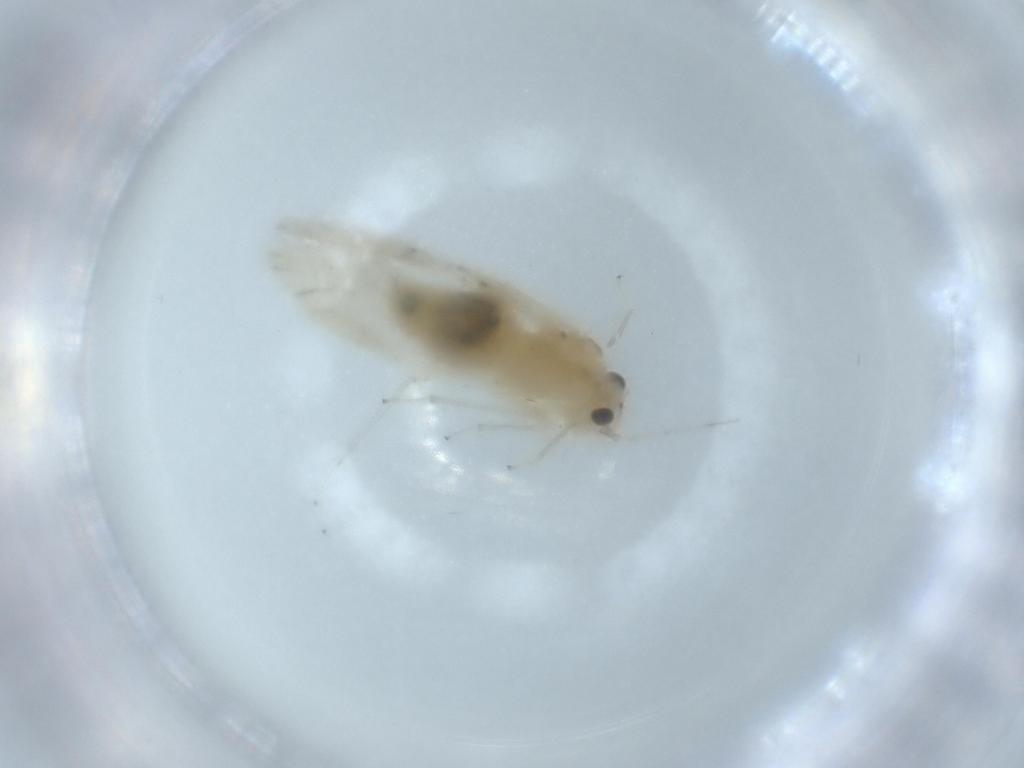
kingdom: Animalia
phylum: Arthropoda
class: Insecta
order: Psocodea
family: Caeciliusidae
